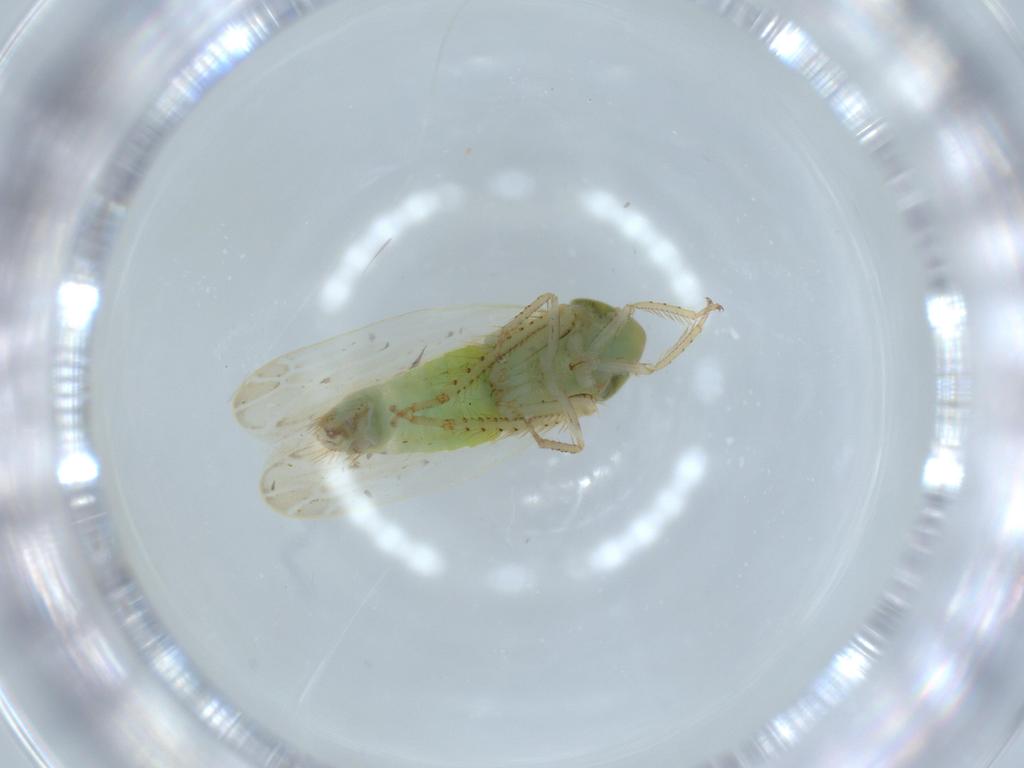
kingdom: Animalia
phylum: Arthropoda
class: Insecta
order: Hemiptera
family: Cicadellidae
